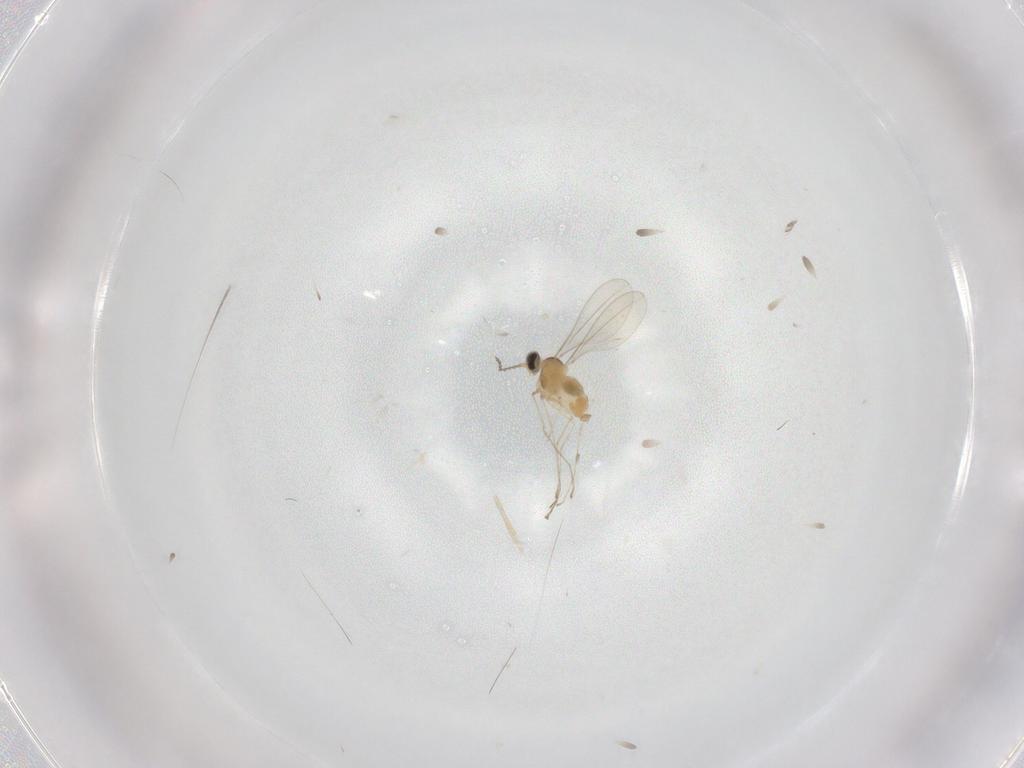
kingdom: Animalia
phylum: Arthropoda
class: Insecta
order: Diptera
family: Cecidomyiidae
